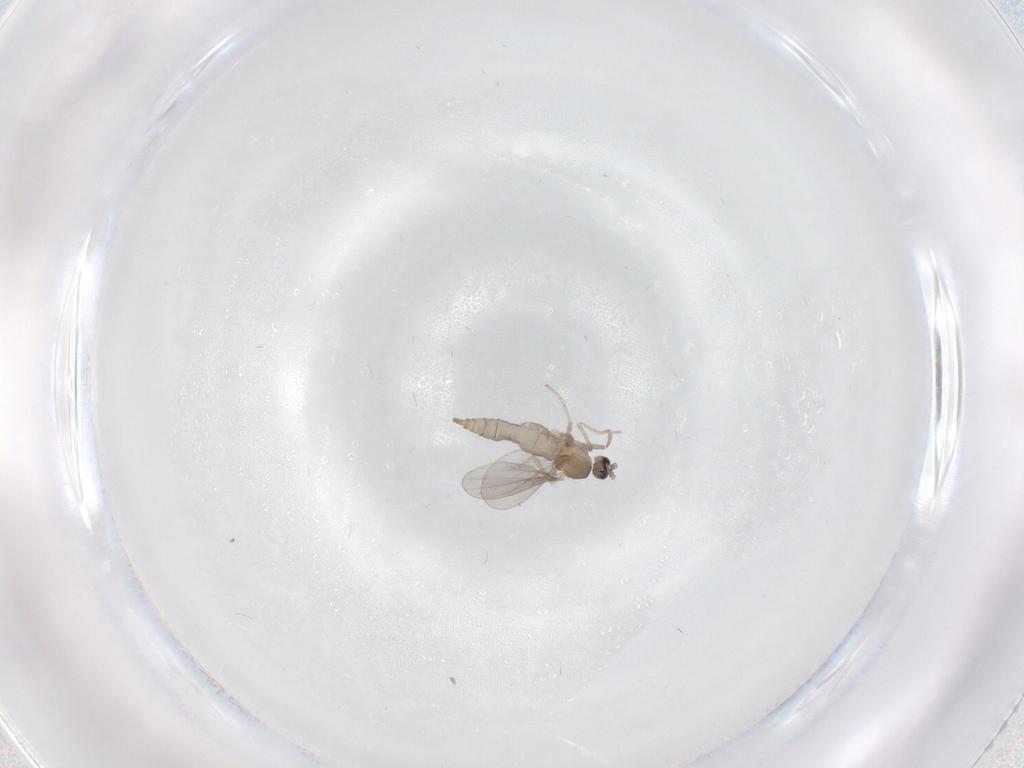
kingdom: Animalia
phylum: Arthropoda
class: Insecta
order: Diptera
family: Cecidomyiidae
